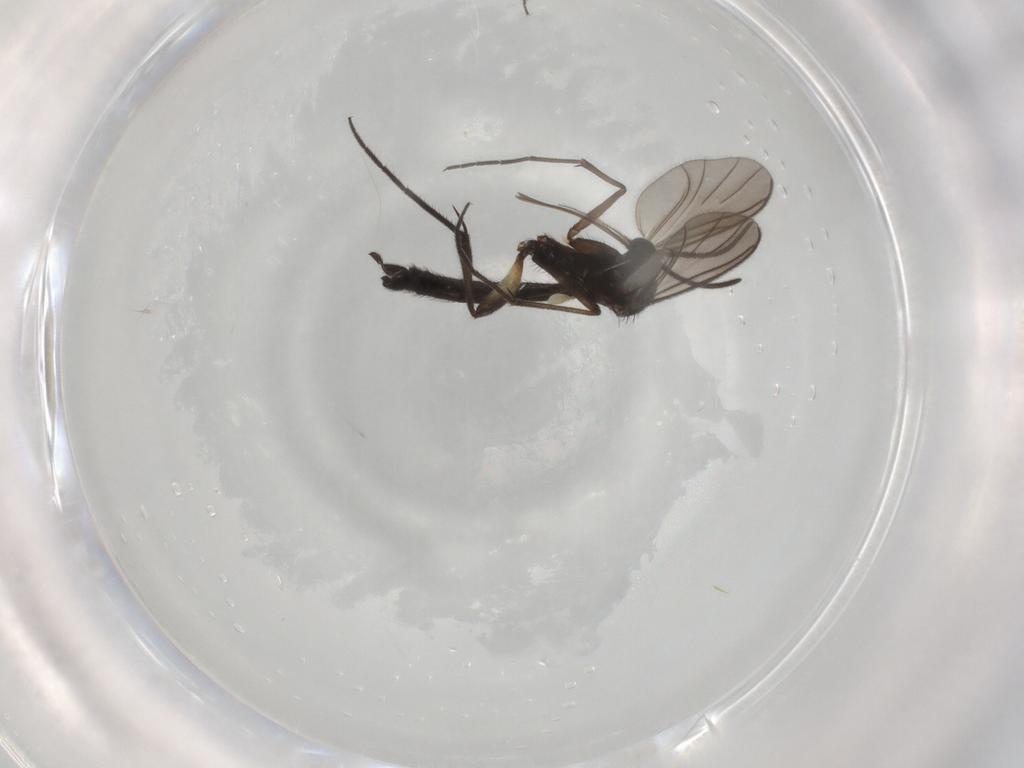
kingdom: Animalia
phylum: Arthropoda
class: Insecta
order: Diptera
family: Keroplatidae
